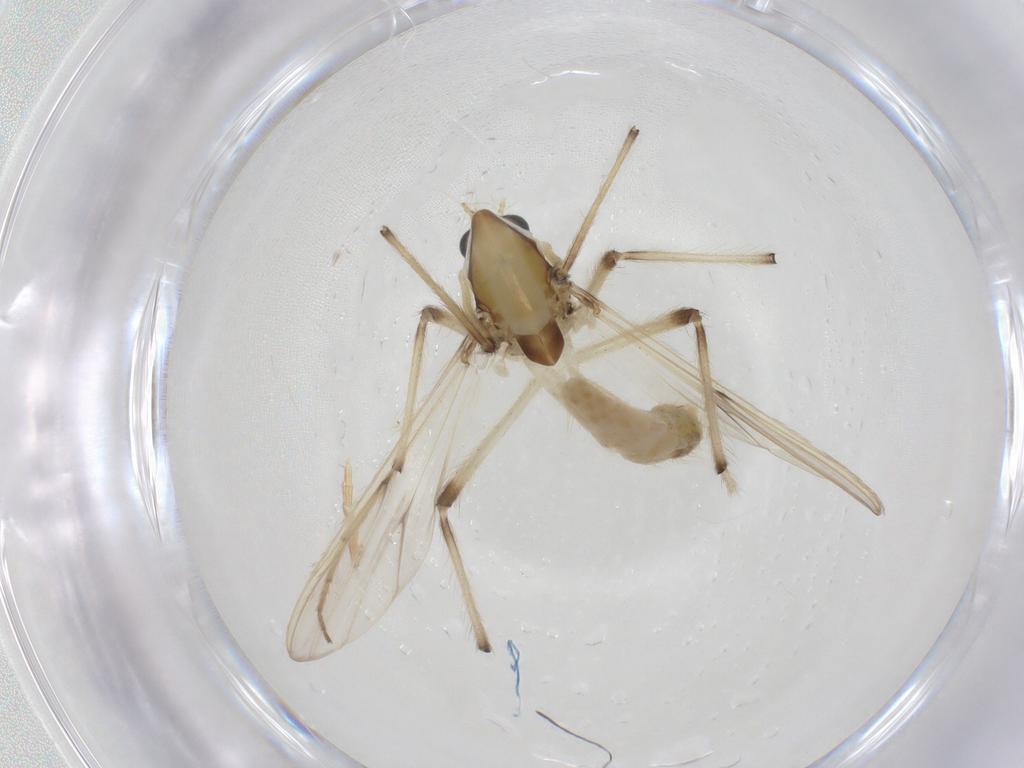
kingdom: Animalia
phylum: Arthropoda
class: Insecta
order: Diptera
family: Chironomidae
